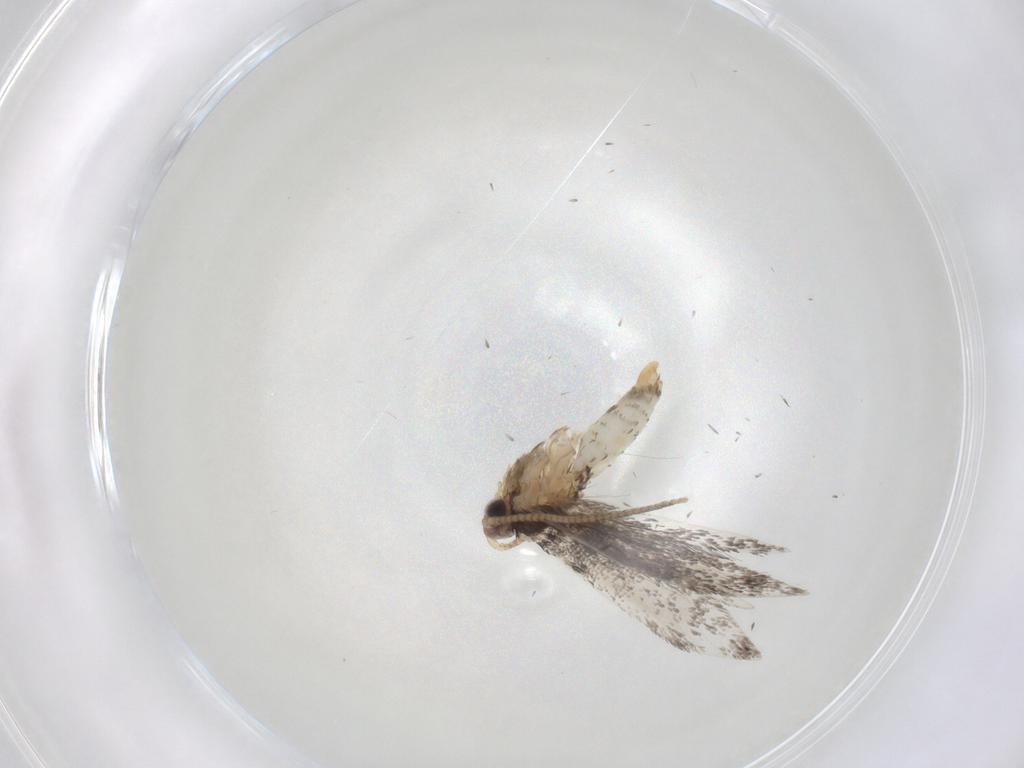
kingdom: Animalia
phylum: Arthropoda
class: Insecta
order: Lepidoptera
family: Tineidae
